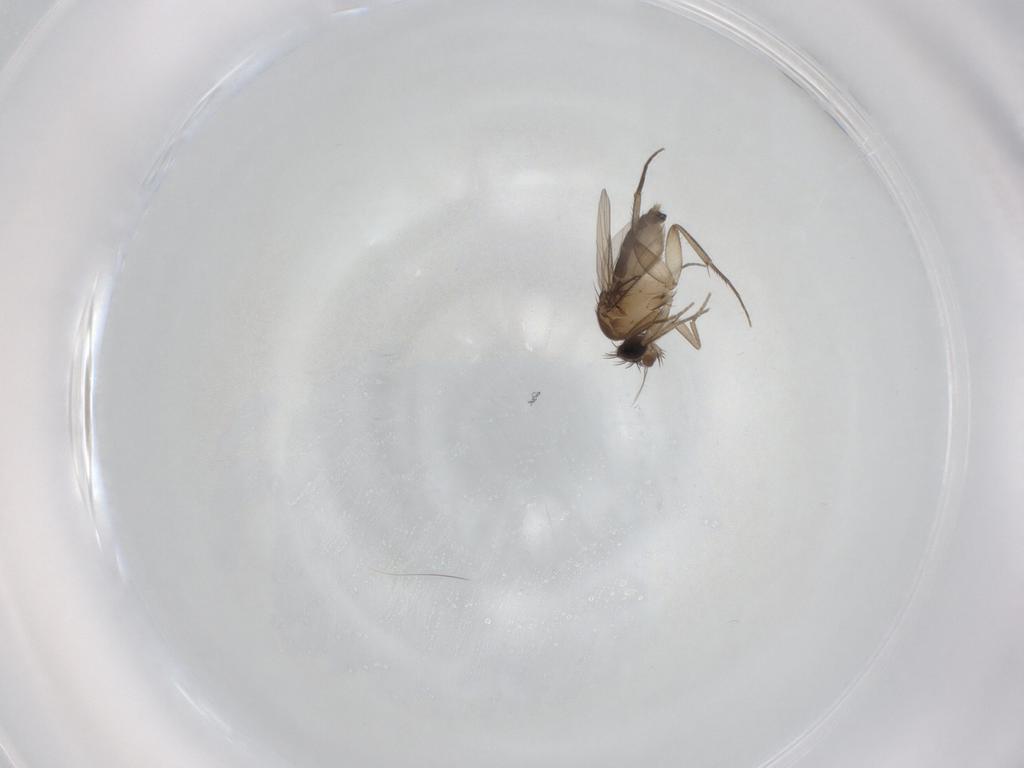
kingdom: Animalia
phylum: Arthropoda
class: Insecta
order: Diptera
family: Phoridae
